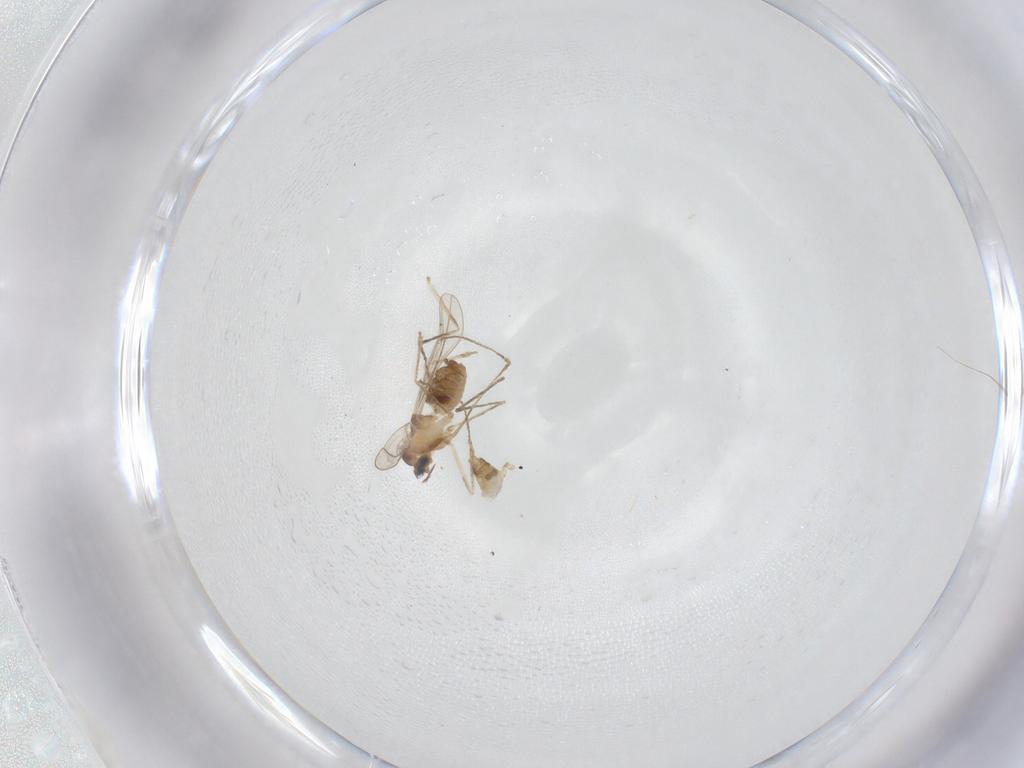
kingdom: Animalia
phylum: Arthropoda
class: Insecta
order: Diptera
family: Cecidomyiidae
